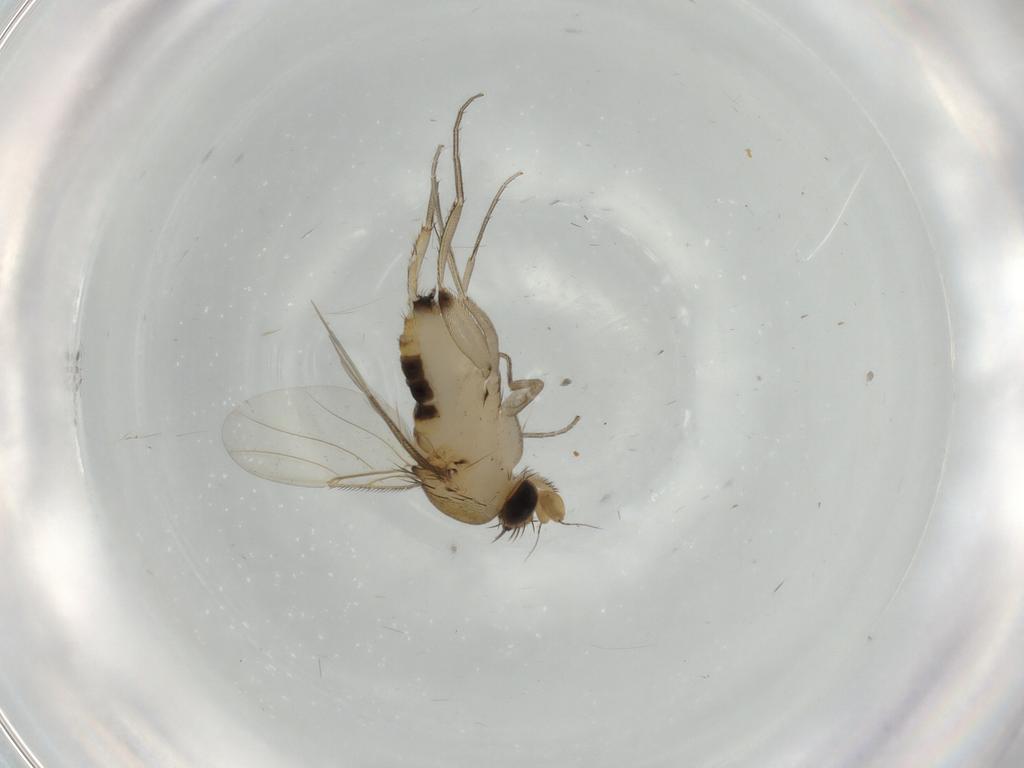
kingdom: Animalia
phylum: Arthropoda
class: Insecta
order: Diptera
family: Phoridae
